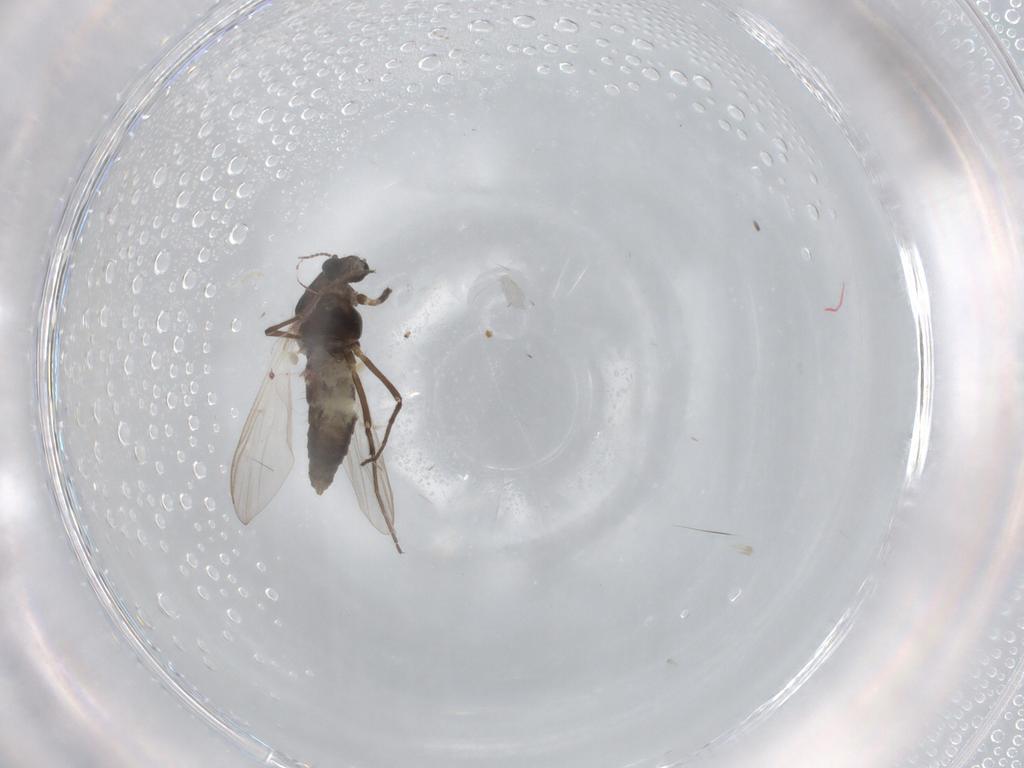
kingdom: Animalia
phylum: Arthropoda
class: Insecta
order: Diptera
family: Chironomidae
